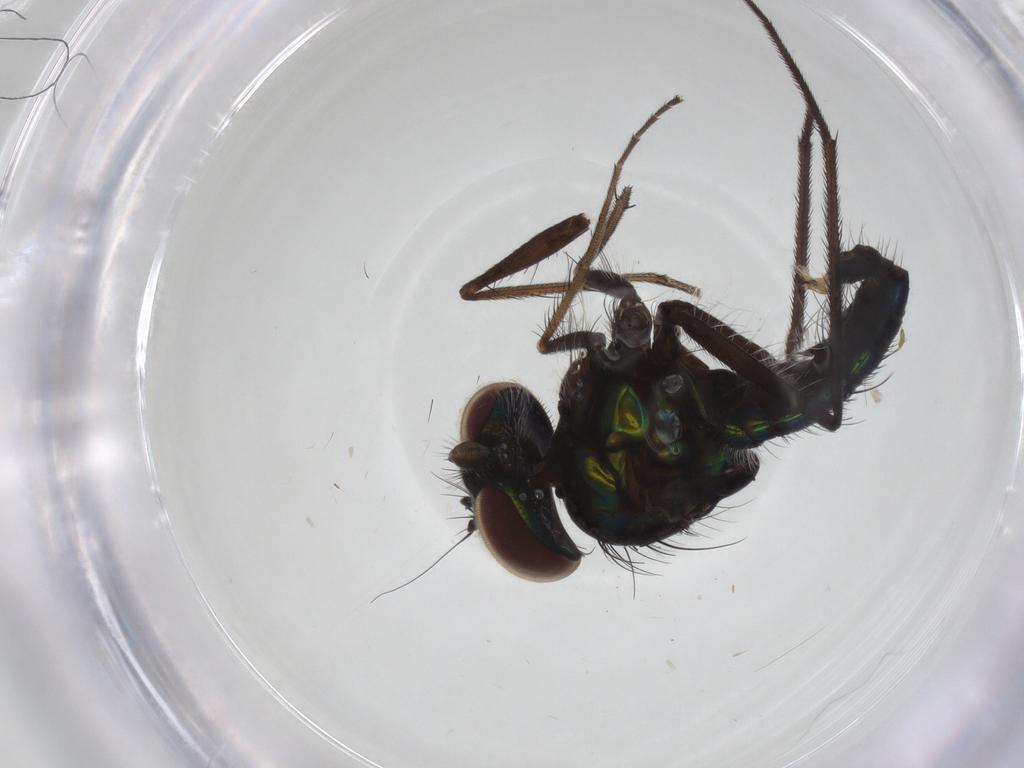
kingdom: Animalia
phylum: Arthropoda
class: Insecta
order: Diptera
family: Dolichopodidae
